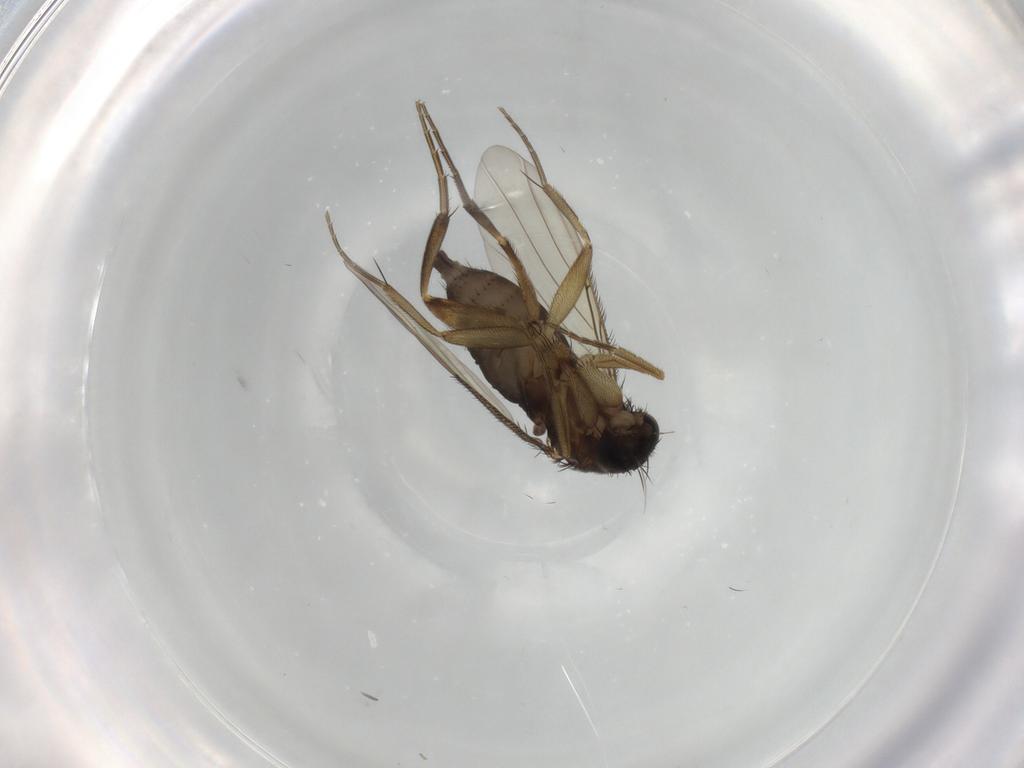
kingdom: Animalia
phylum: Arthropoda
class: Insecta
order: Diptera
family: Phoridae
